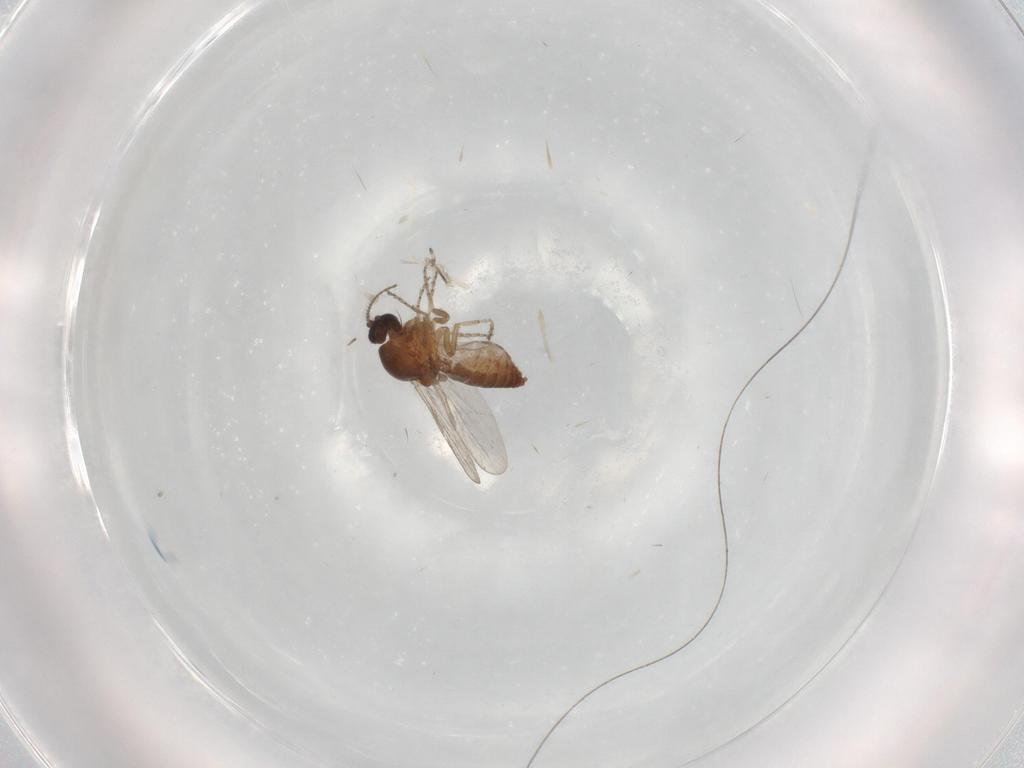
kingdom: Animalia
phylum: Arthropoda
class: Insecta
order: Diptera
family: Ceratopogonidae
